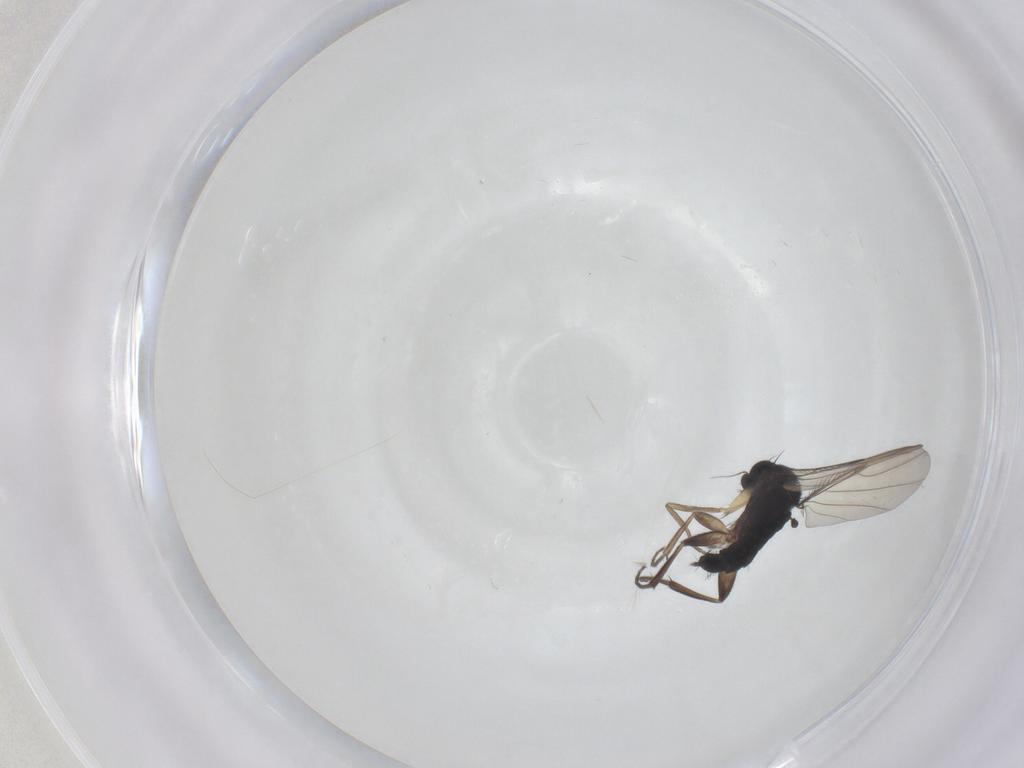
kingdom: Animalia
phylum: Arthropoda
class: Insecta
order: Diptera
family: Phoridae
